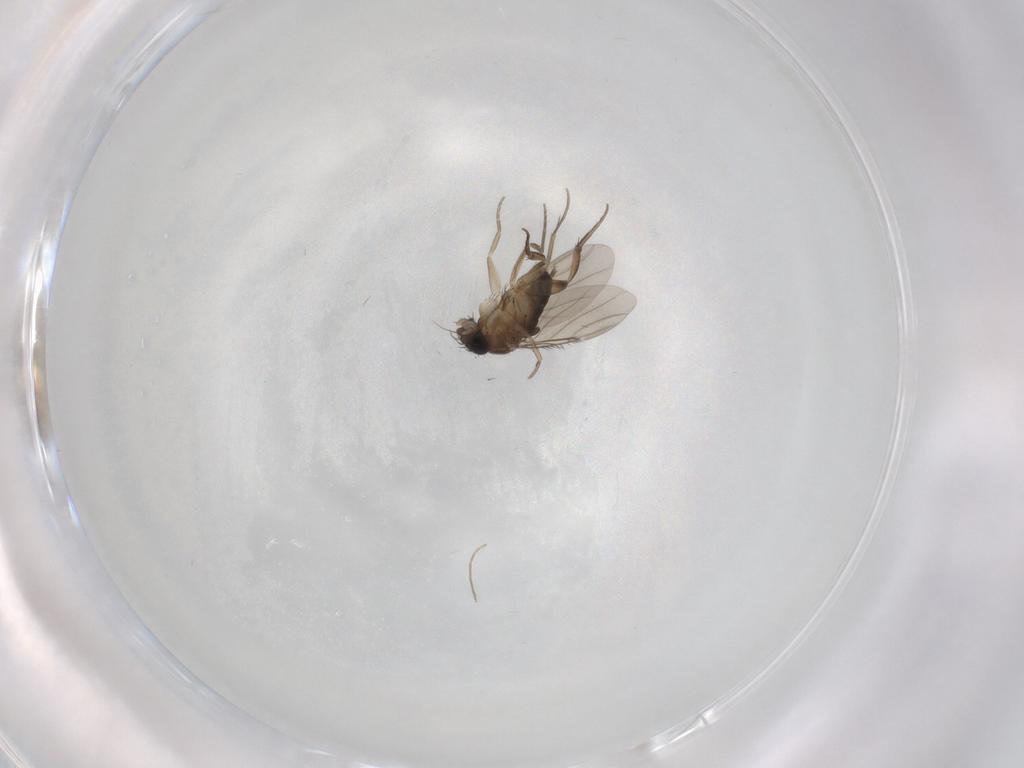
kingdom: Animalia
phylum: Arthropoda
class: Insecta
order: Diptera
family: Phoridae
